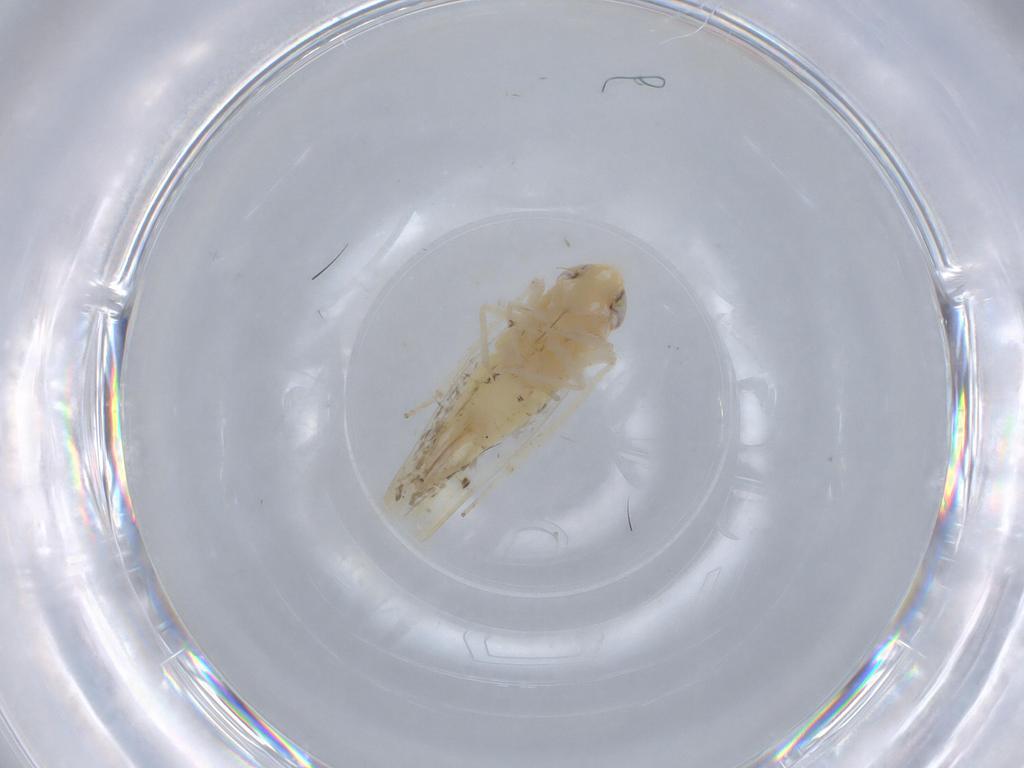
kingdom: Animalia
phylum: Arthropoda
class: Insecta
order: Hemiptera
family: Cicadellidae
